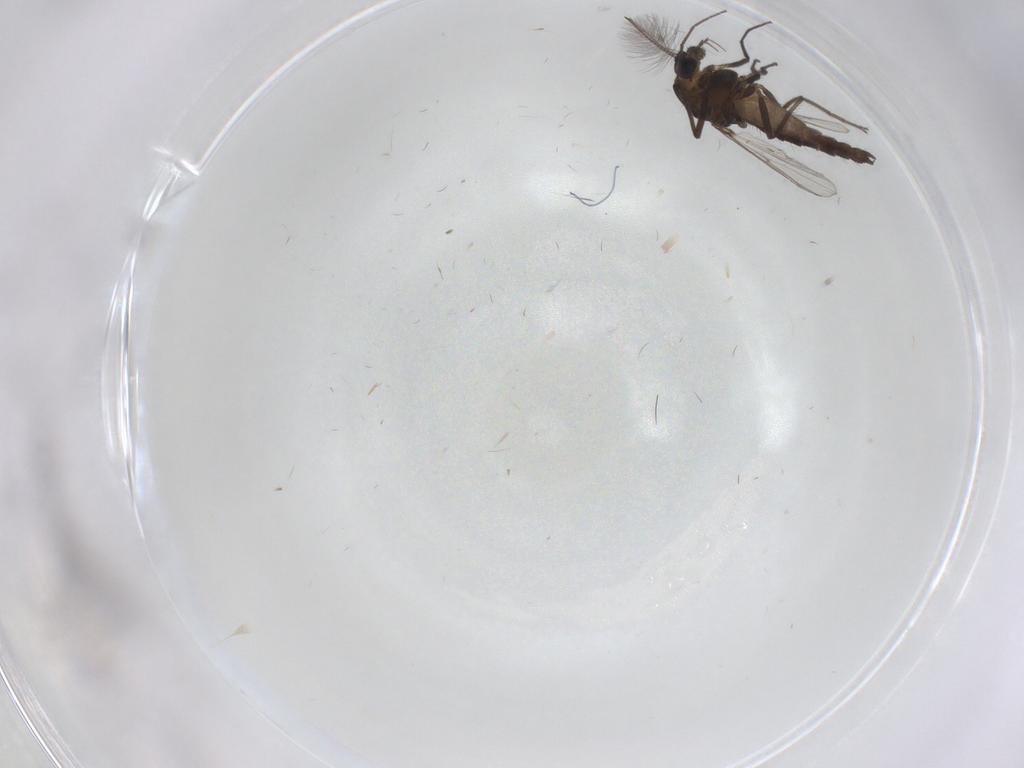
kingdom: Animalia
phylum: Arthropoda
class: Insecta
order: Diptera
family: Chironomidae
